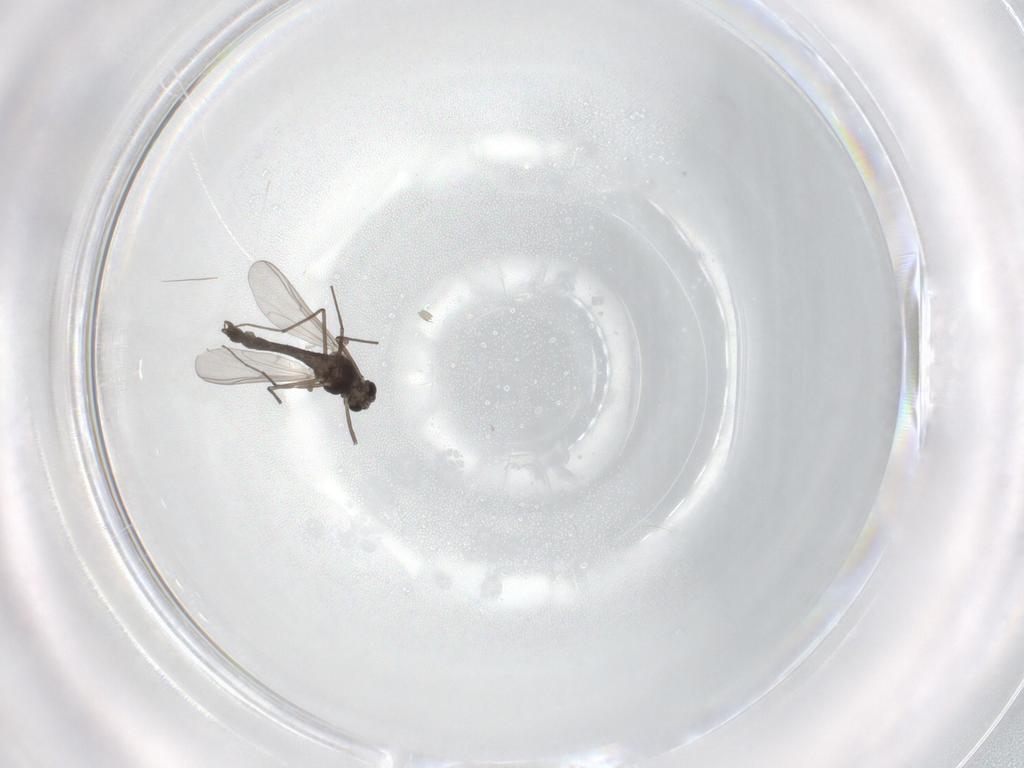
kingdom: Animalia
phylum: Arthropoda
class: Insecta
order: Diptera
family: Chironomidae
